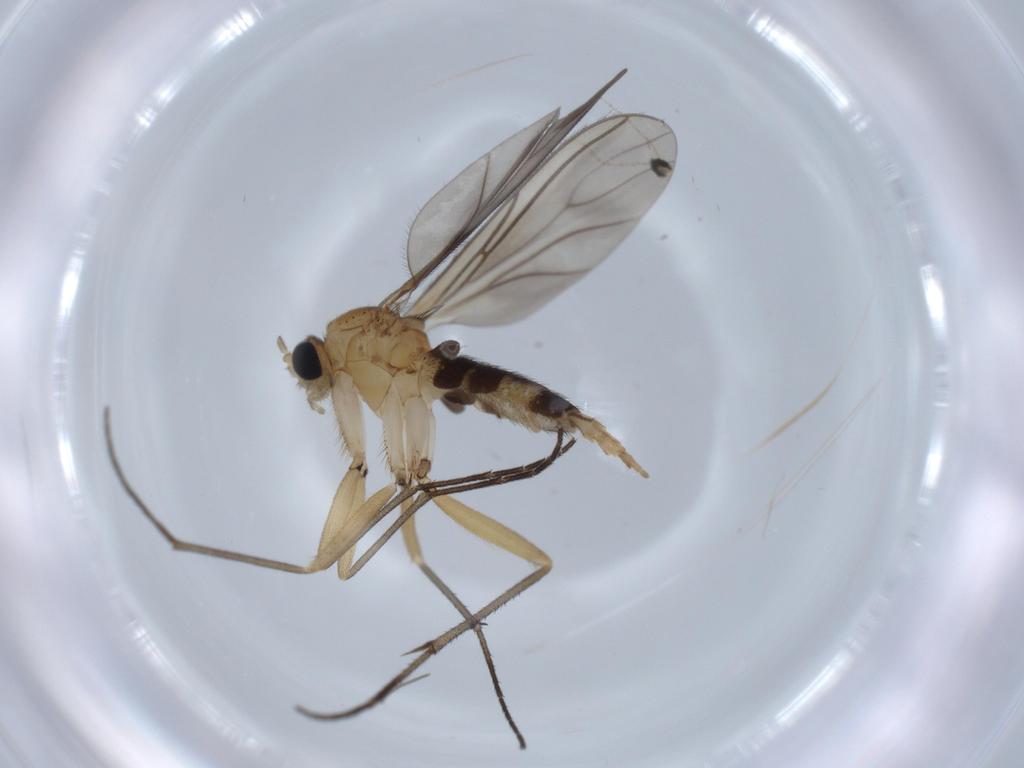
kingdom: Animalia
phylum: Arthropoda
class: Insecta
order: Diptera
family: Sciaridae
